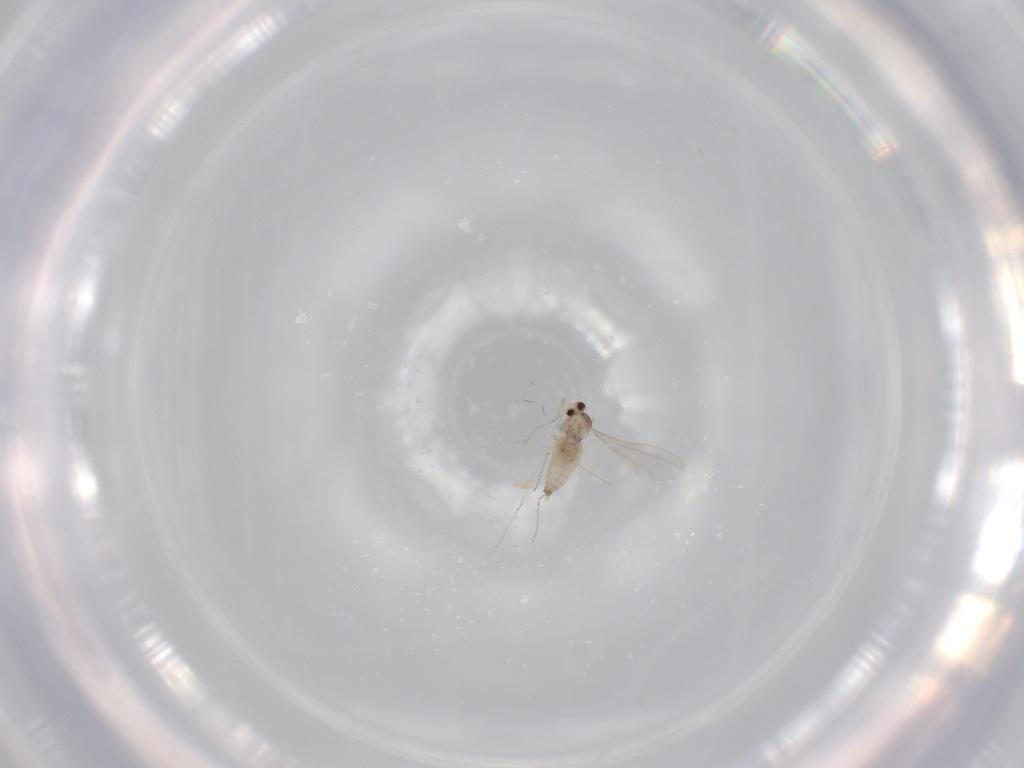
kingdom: Animalia
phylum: Arthropoda
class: Insecta
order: Diptera
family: Cecidomyiidae
